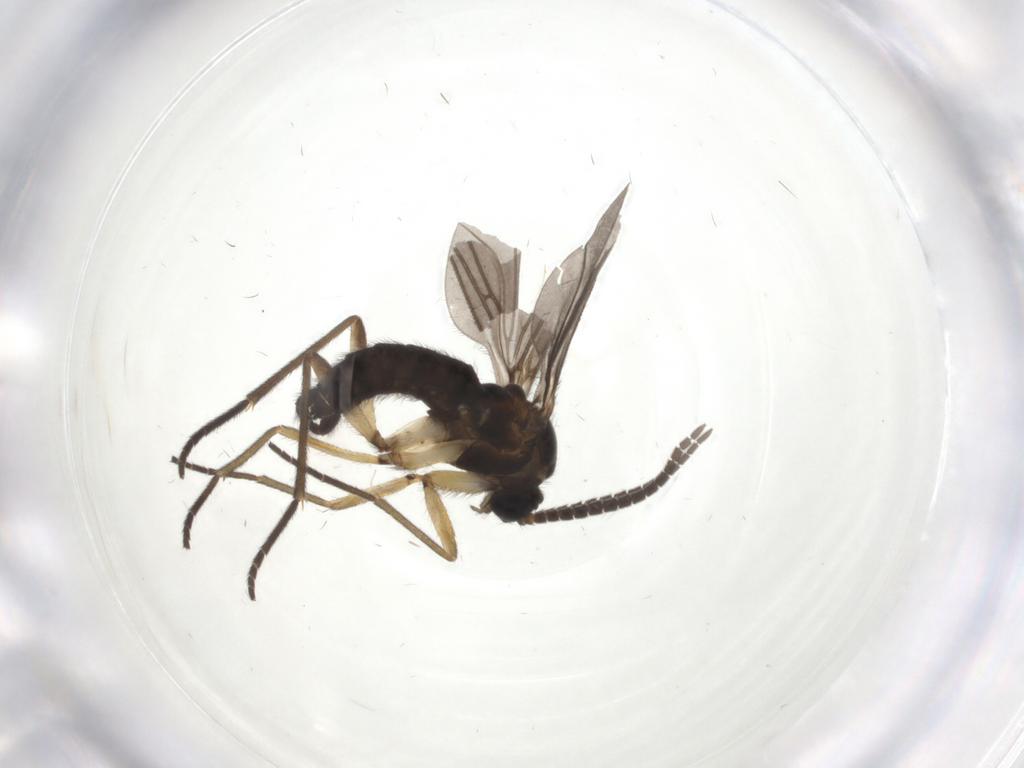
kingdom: Animalia
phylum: Arthropoda
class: Insecta
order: Diptera
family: Sciaridae
